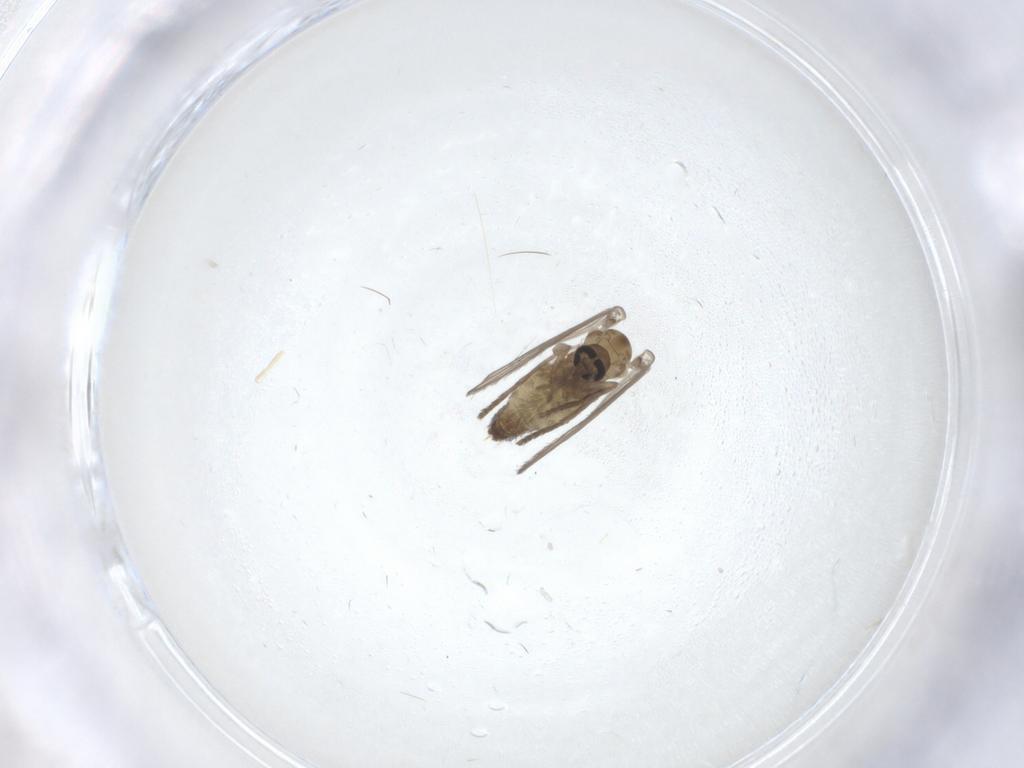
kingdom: Animalia
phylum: Arthropoda
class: Insecta
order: Diptera
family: Psychodidae
